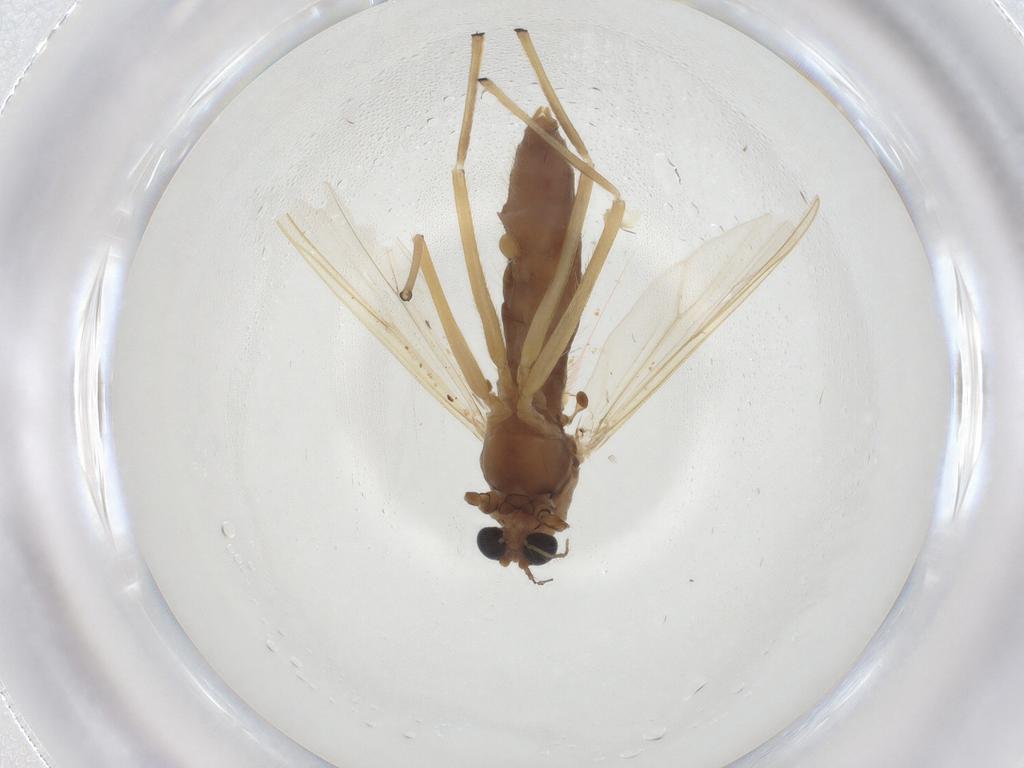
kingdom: Animalia
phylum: Arthropoda
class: Insecta
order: Diptera
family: Chironomidae
